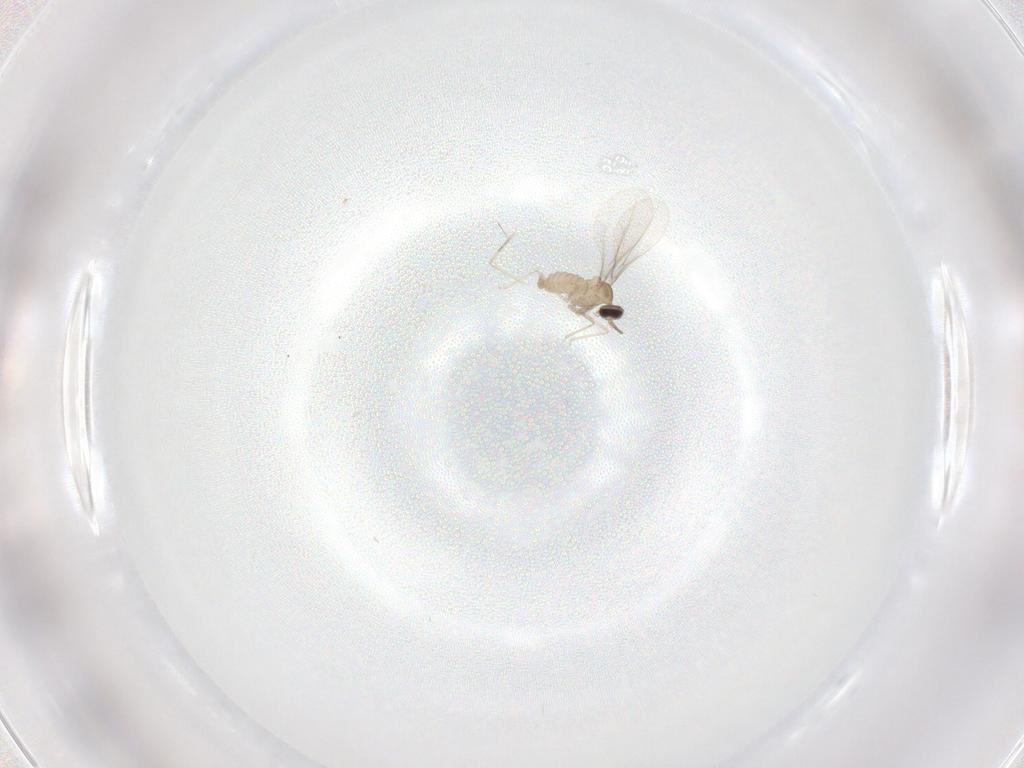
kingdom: Animalia
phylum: Arthropoda
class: Insecta
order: Diptera
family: Cecidomyiidae
